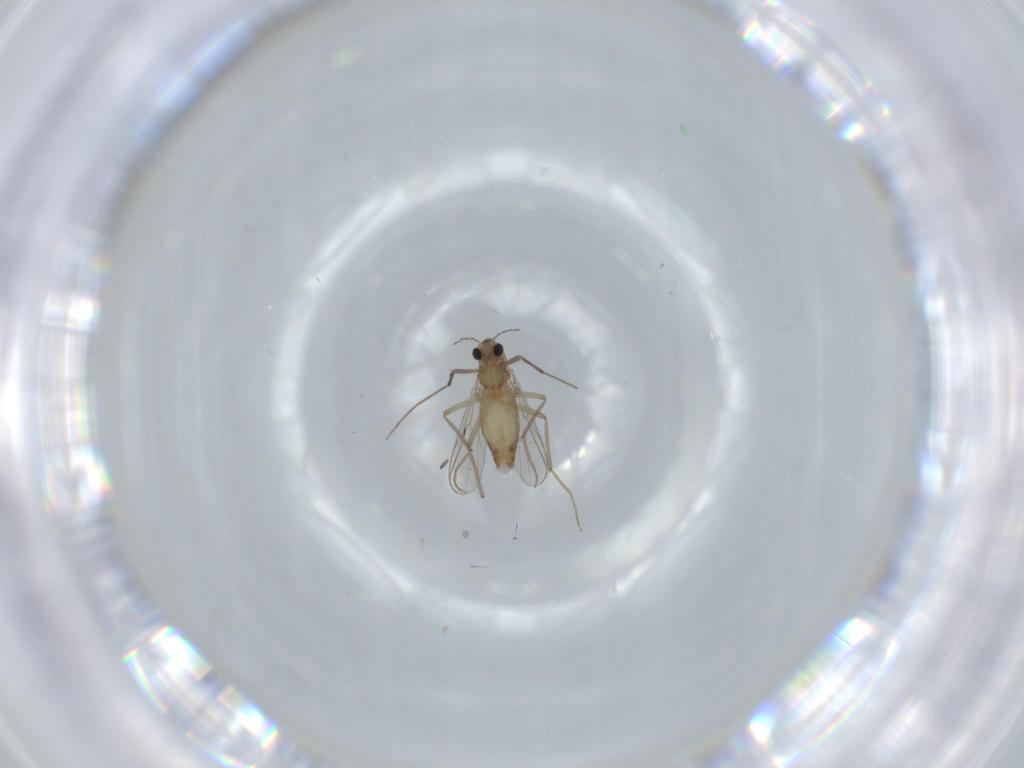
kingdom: Animalia
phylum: Arthropoda
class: Insecta
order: Diptera
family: Chironomidae
